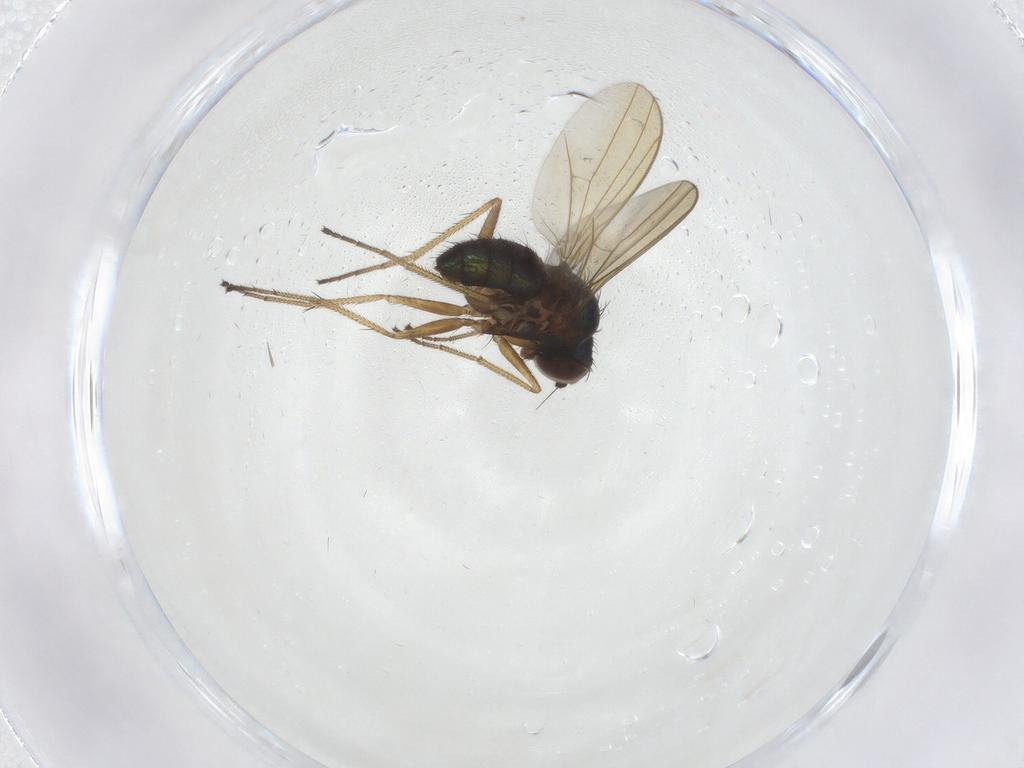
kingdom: Animalia
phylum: Arthropoda
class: Insecta
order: Diptera
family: Dolichopodidae
